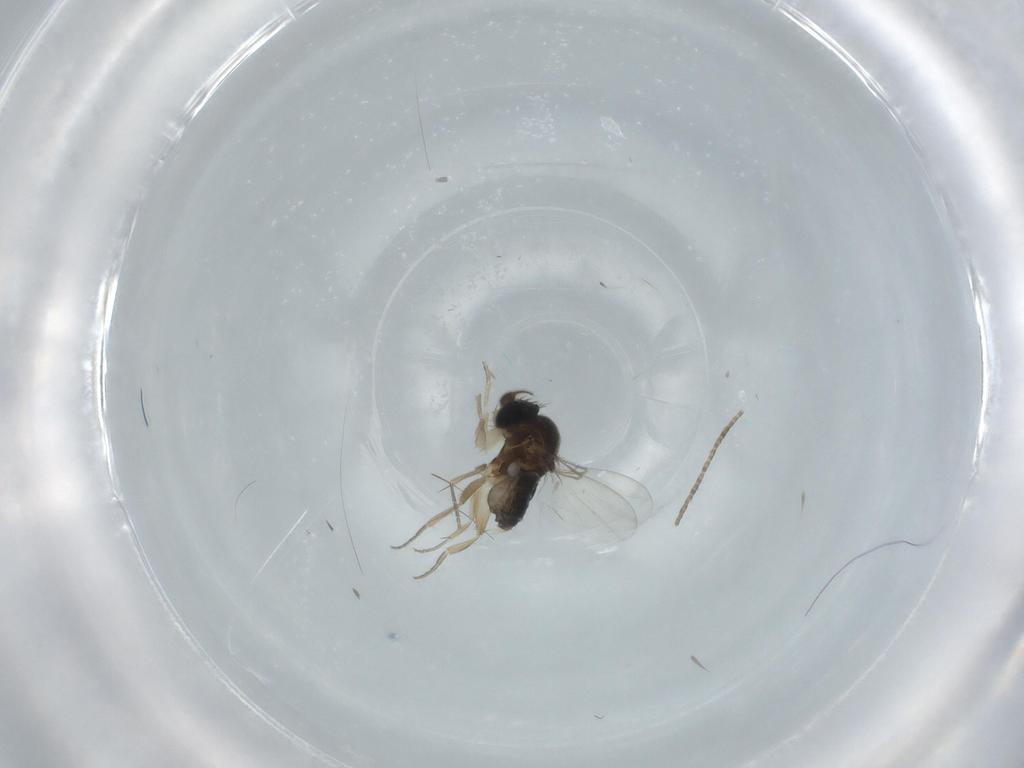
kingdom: Animalia
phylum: Arthropoda
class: Insecta
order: Diptera
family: Phoridae
